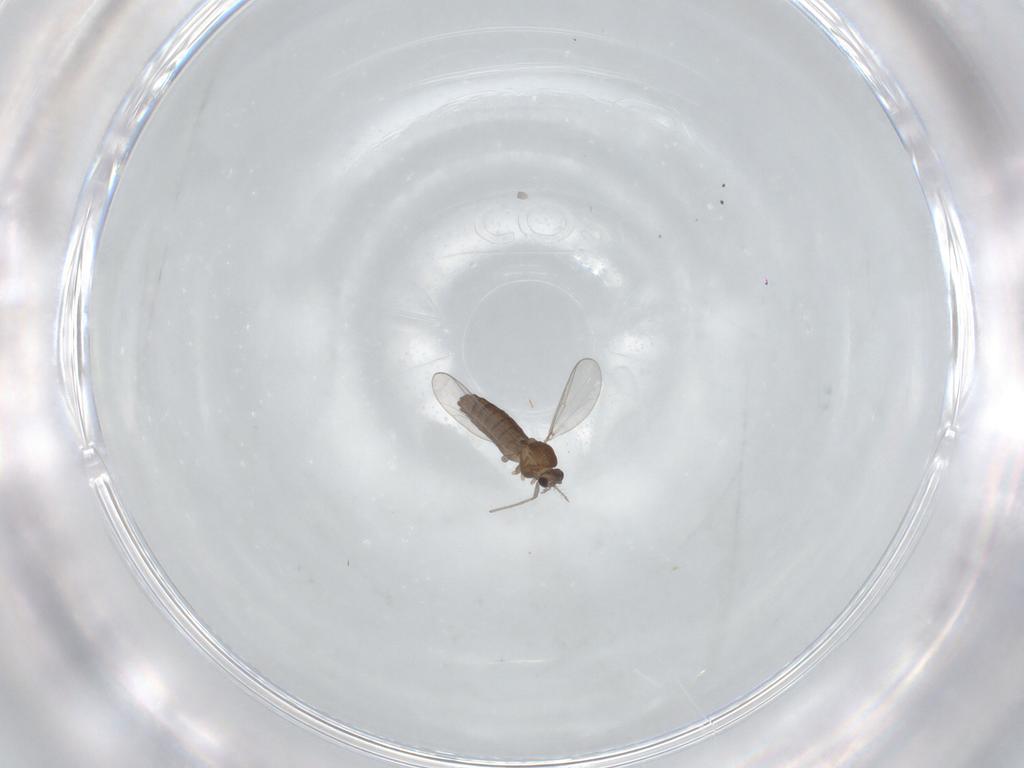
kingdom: Animalia
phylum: Arthropoda
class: Insecta
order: Diptera
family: Chironomidae
